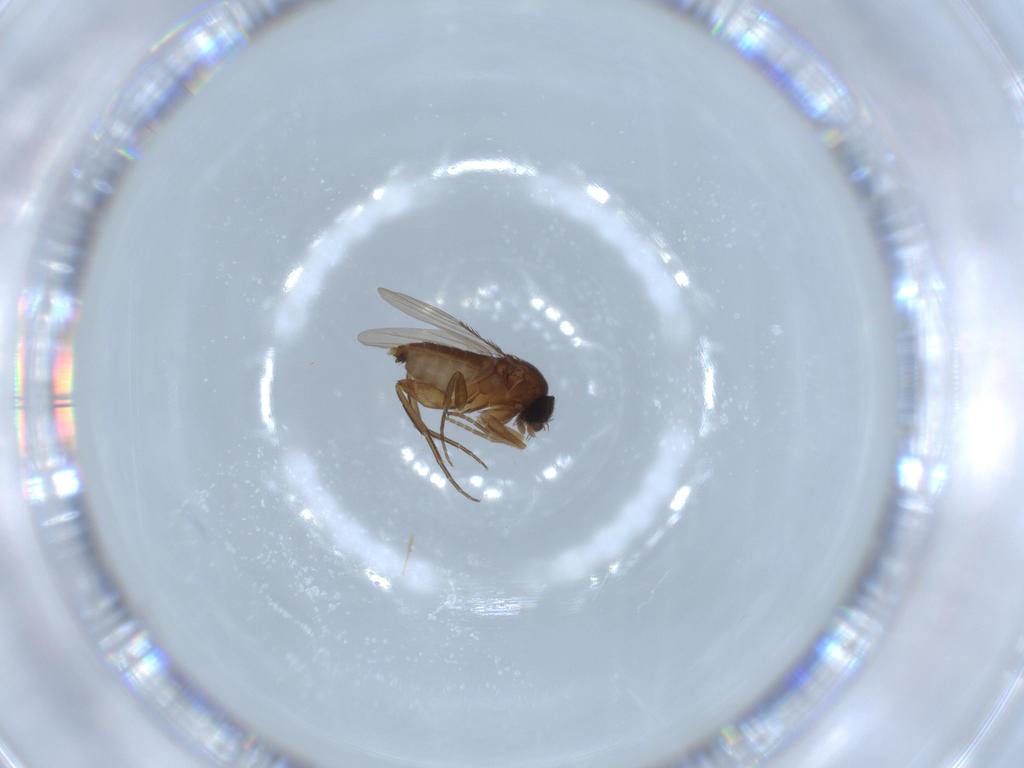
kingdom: Animalia
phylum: Arthropoda
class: Insecta
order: Diptera
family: Phoridae
